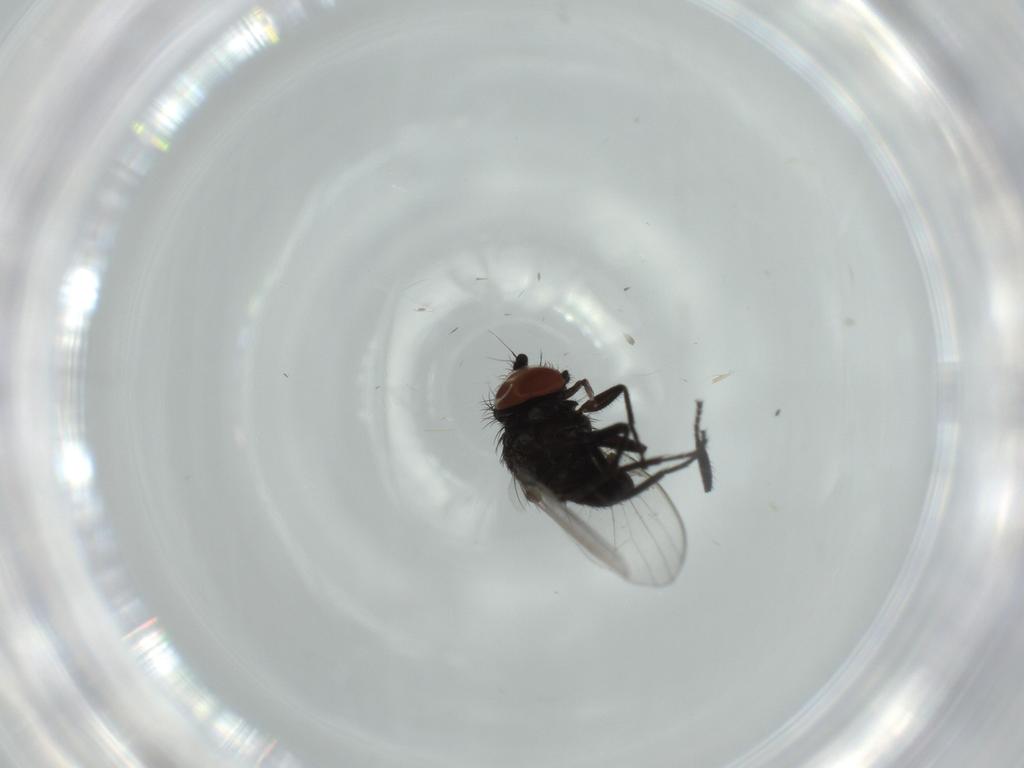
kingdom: Animalia
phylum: Arthropoda
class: Insecta
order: Diptera
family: Milichiidae
